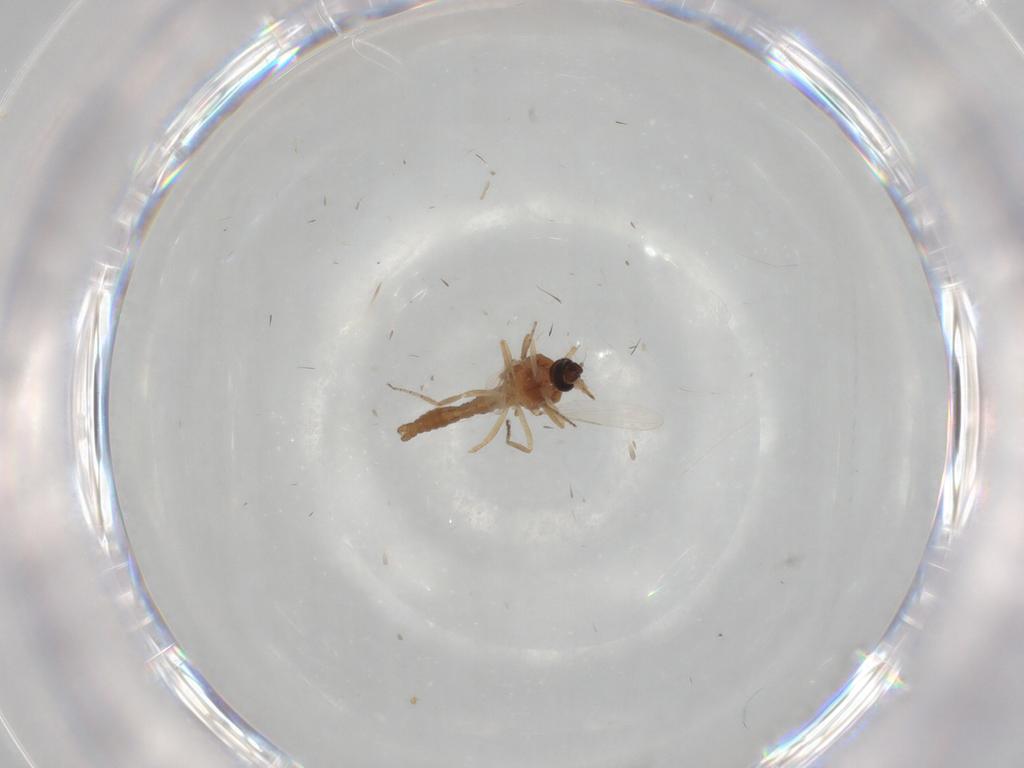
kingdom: Animalia
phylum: Arthropoda
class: Insecta
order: Diptera
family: Ceratopogonidae
